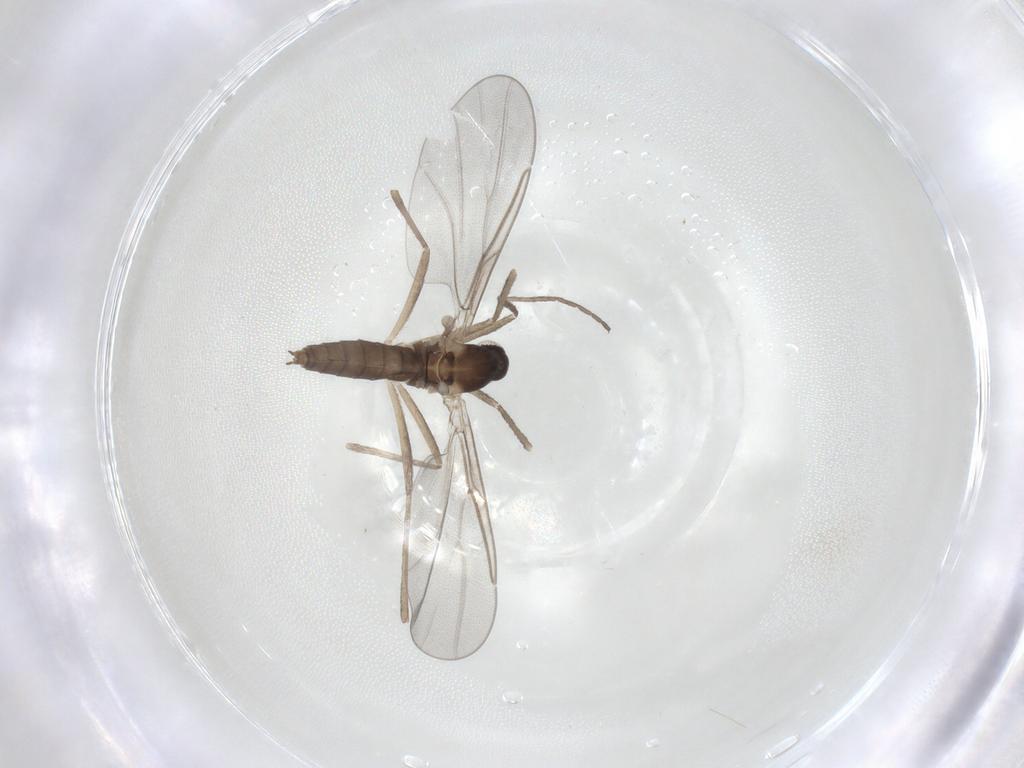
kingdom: Animalia
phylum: Arthropoda
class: Insecta
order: Diptera
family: Cecidomyiidae
